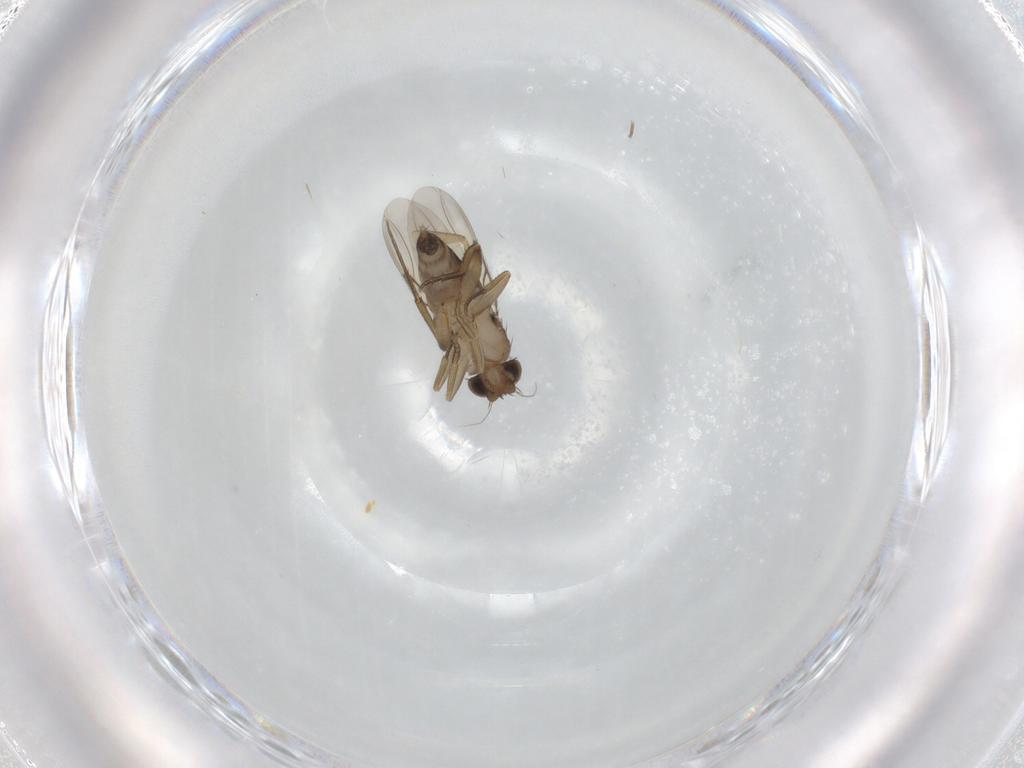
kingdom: Animalia
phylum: Arthropoda
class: Insecta
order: Diptera
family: Phoridae
